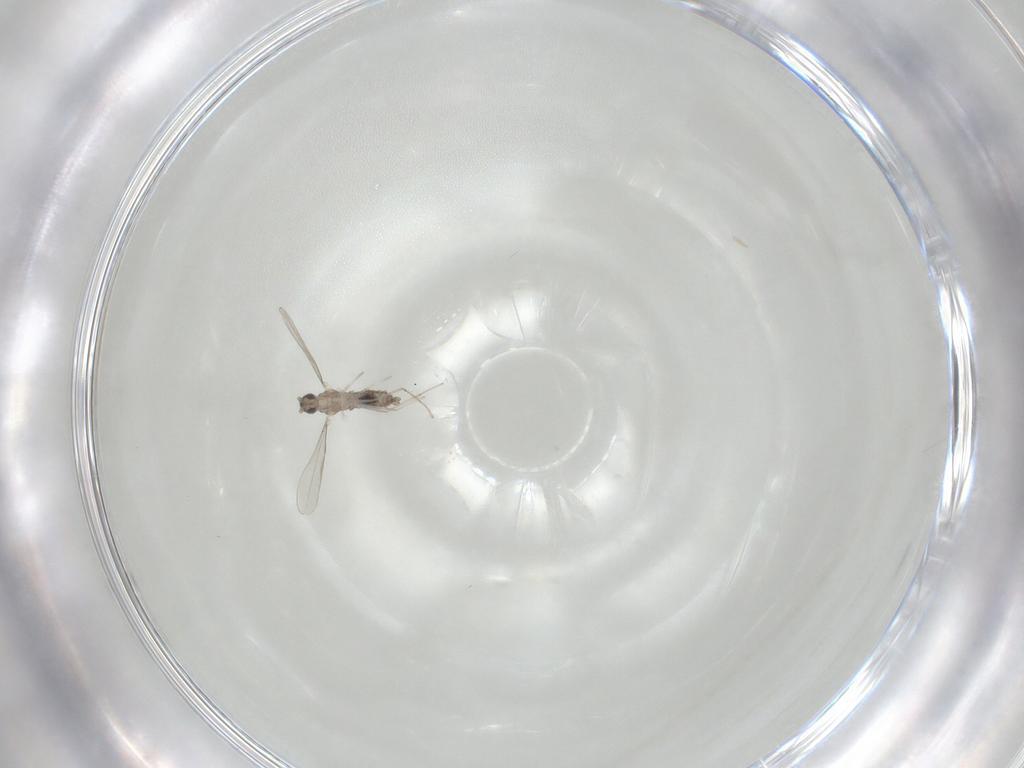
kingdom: Animalia
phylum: Arthropoda
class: Insecta
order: Diptera
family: Cecidomyiidae
